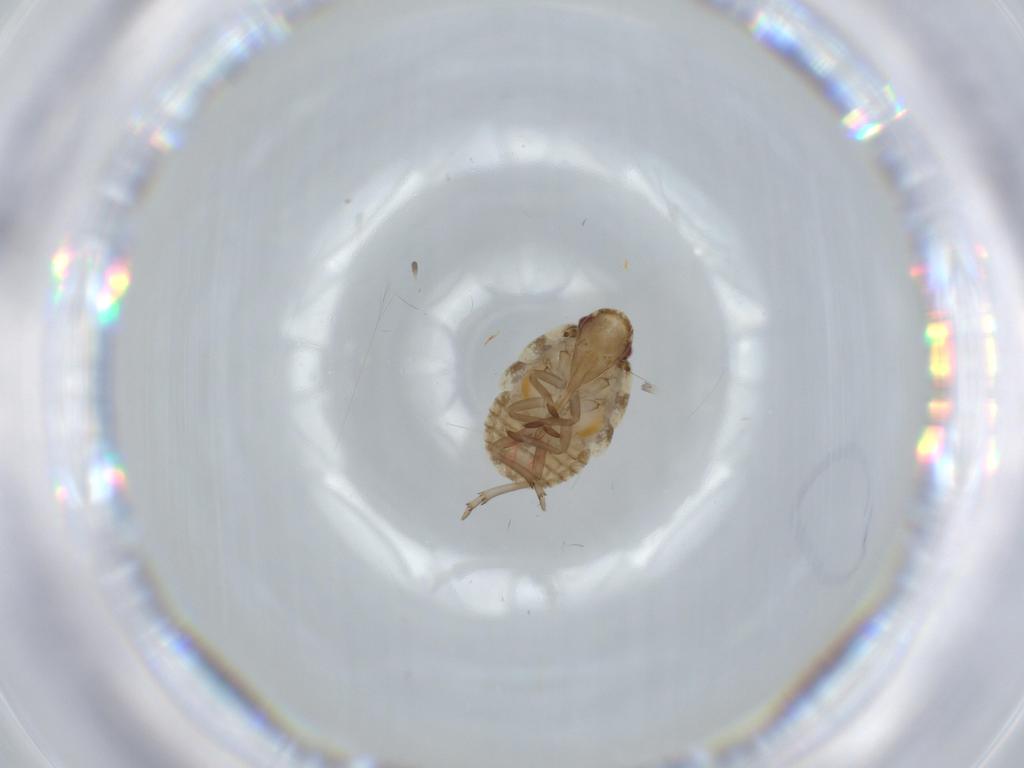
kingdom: Animalia
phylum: Arthropoda
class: Insecta
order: Hemiptera
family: Flatidae
